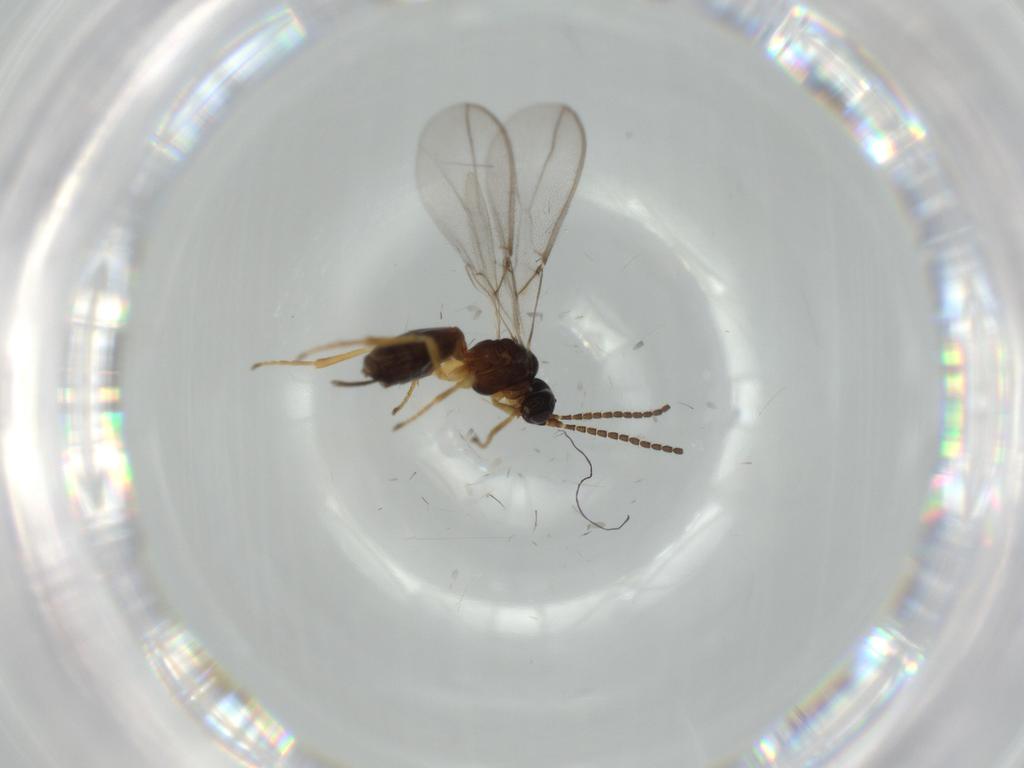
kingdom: Animalia
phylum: Arthropoda
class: Insecta
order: Hymenoptera
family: Braconidae
